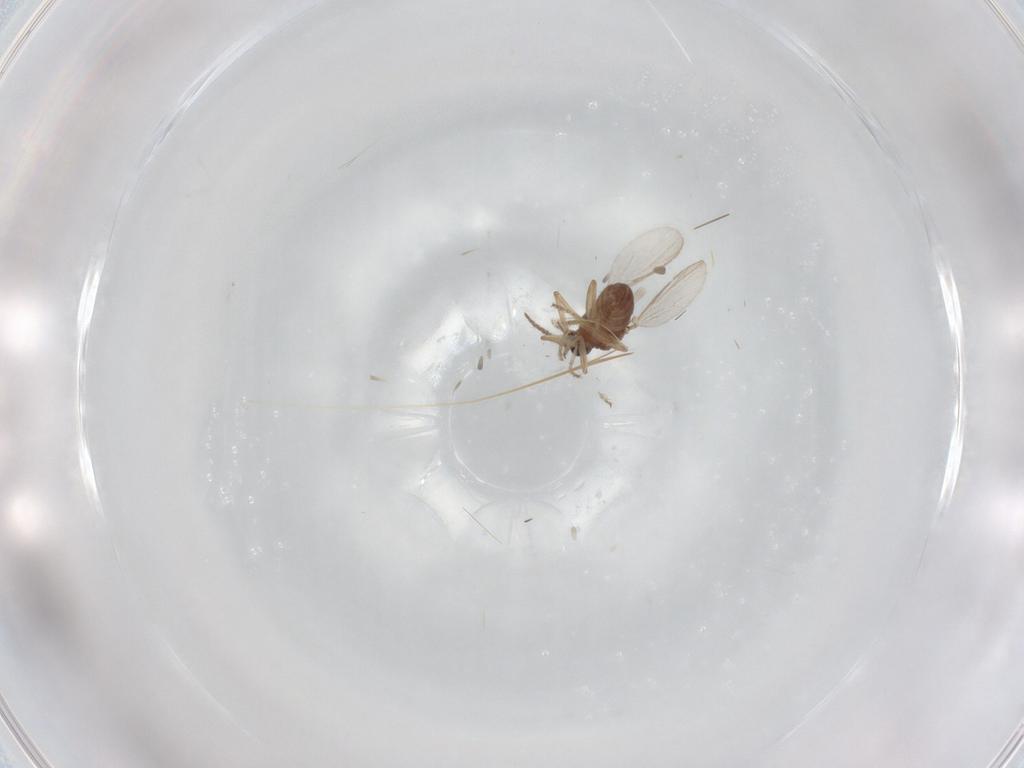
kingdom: Animalia
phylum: Arthropoda
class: Insecta
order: Diptera
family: Ceratopogonidae
